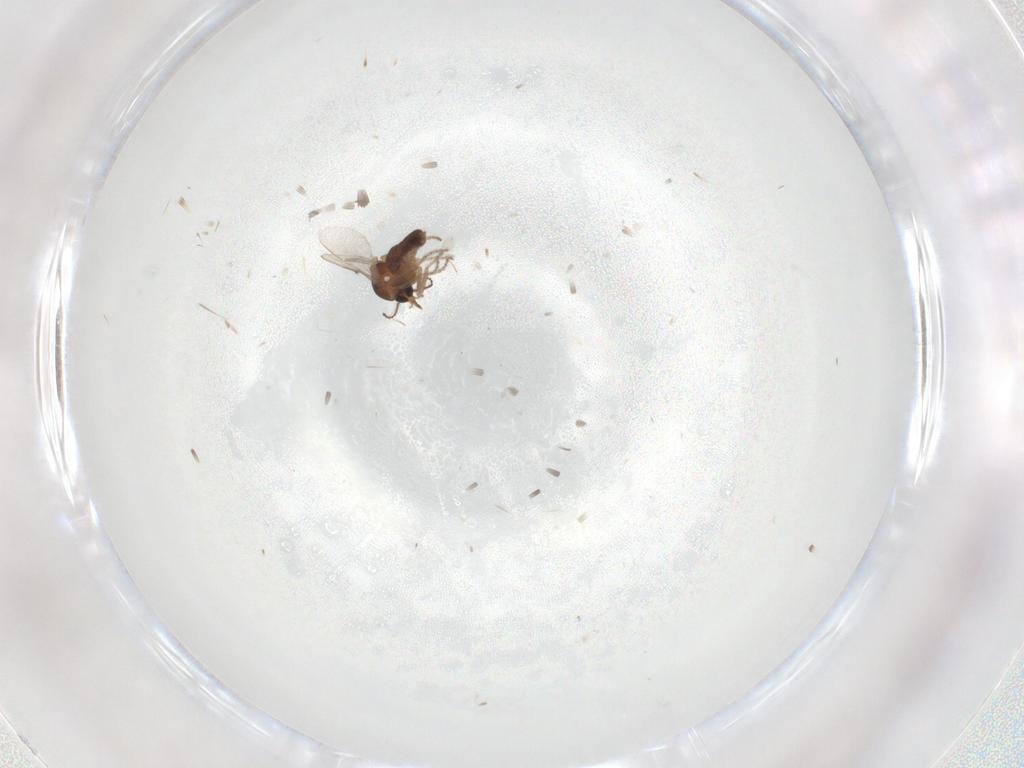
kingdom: Animalia
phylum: Arthropoda
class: Insecta
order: Diptera
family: Ceratopogonidae
